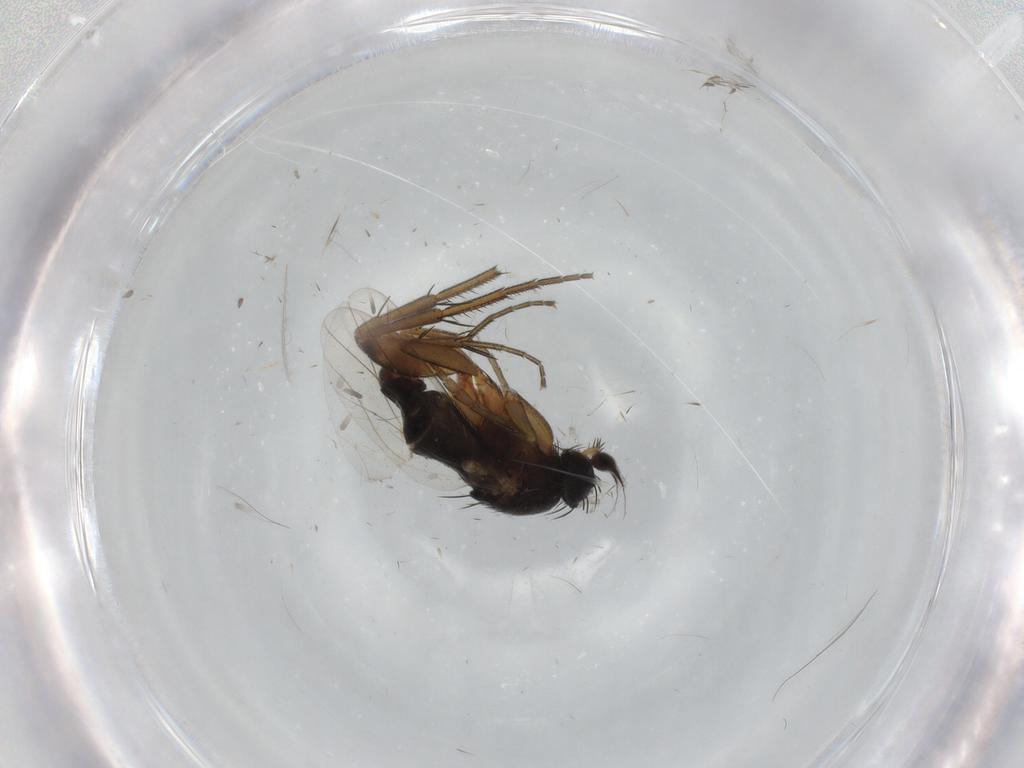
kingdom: Animalia
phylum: Arthropoda
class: Insecta
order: Diptera
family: Phoridae
